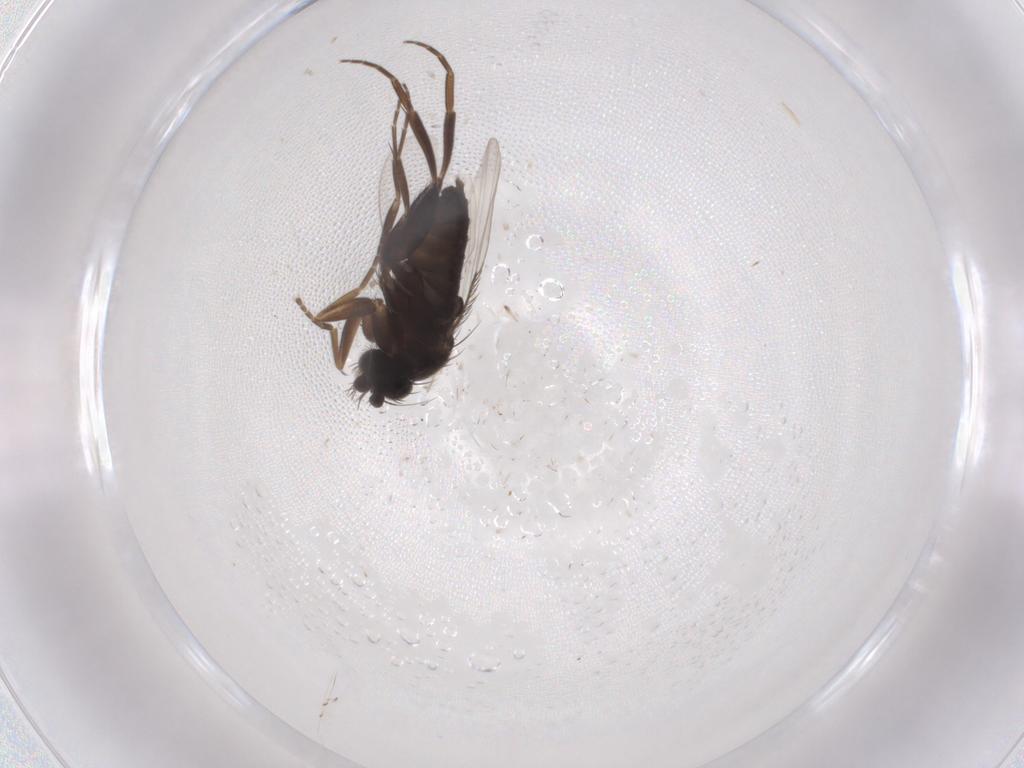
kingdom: Animalia
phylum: Arthropoda
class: Insecta
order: Diptera
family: Phoridae
